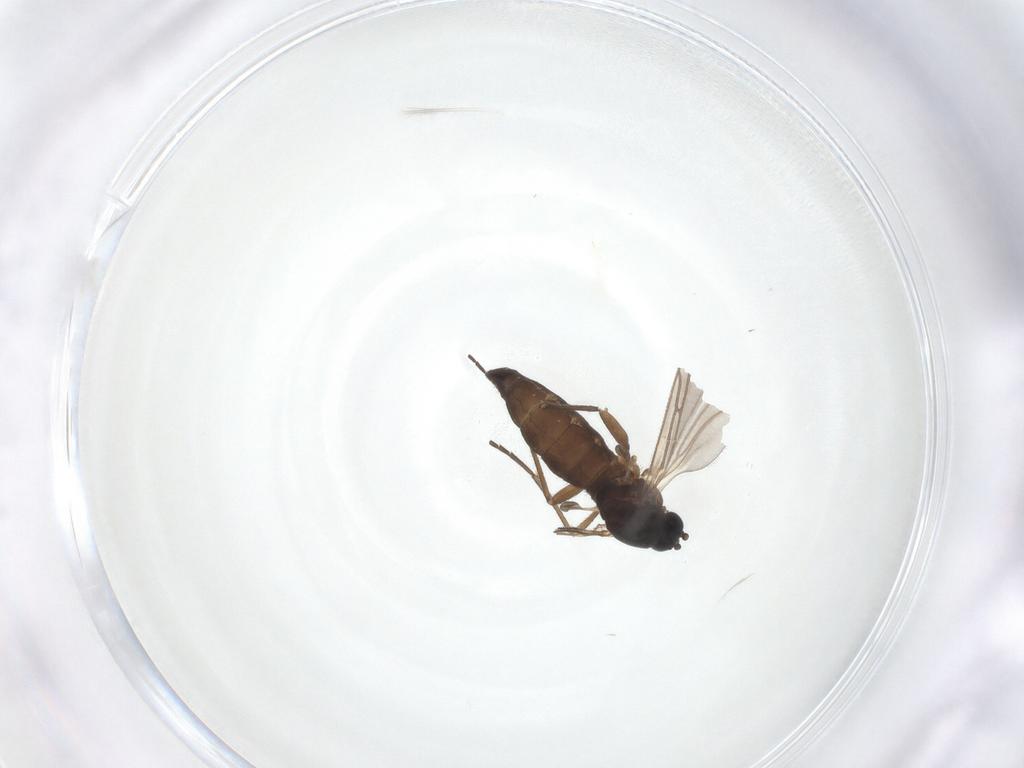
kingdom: Animalia
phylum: Arthropoda
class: Insecta
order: Diptera
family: Sciaridae
